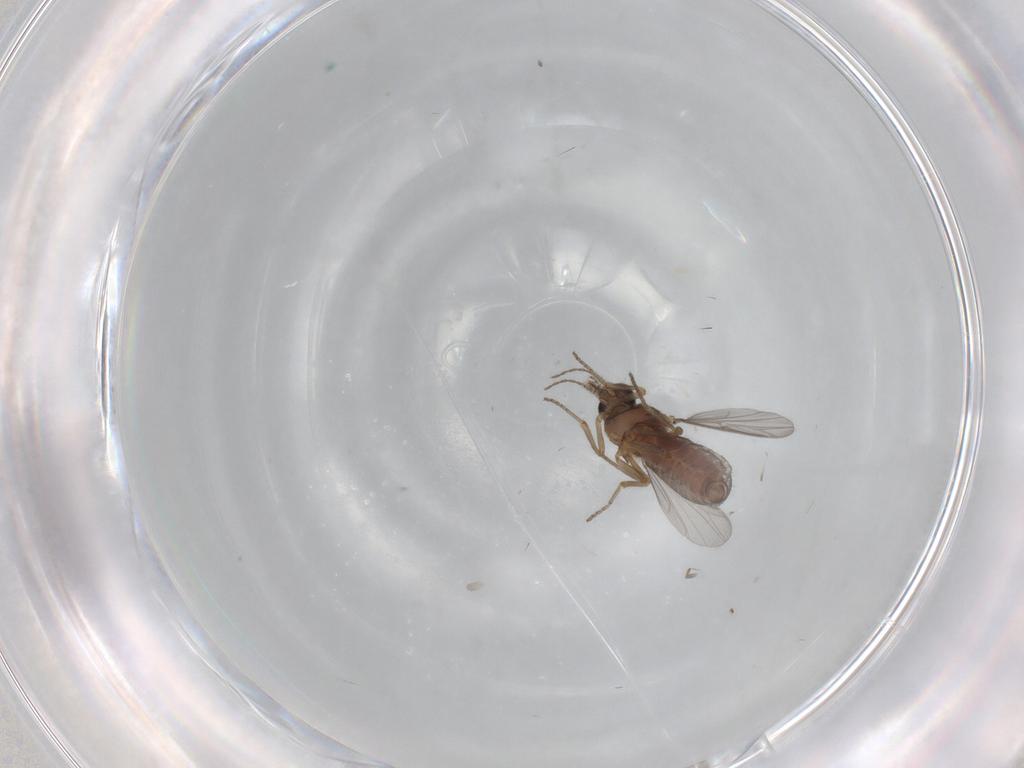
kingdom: Animalia
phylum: Arthropoda
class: Insecta
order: Diptera
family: Ceratopogonidae
